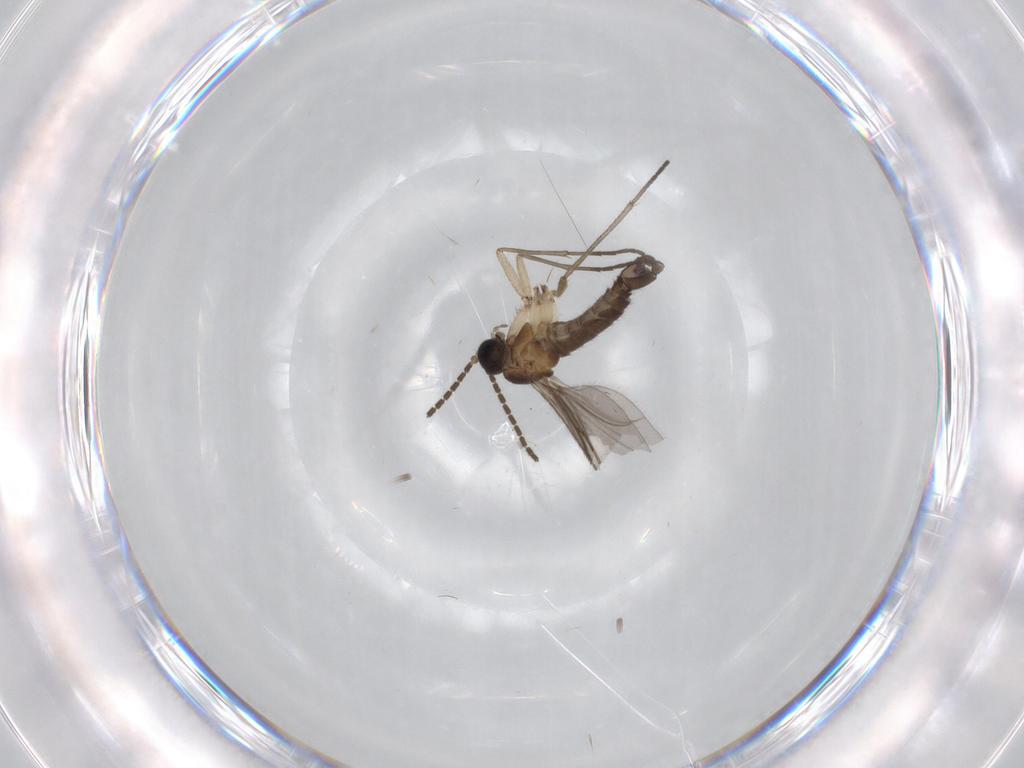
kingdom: Animalia
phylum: Arthropoda
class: Insecta
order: Diptera
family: Sciaridae
